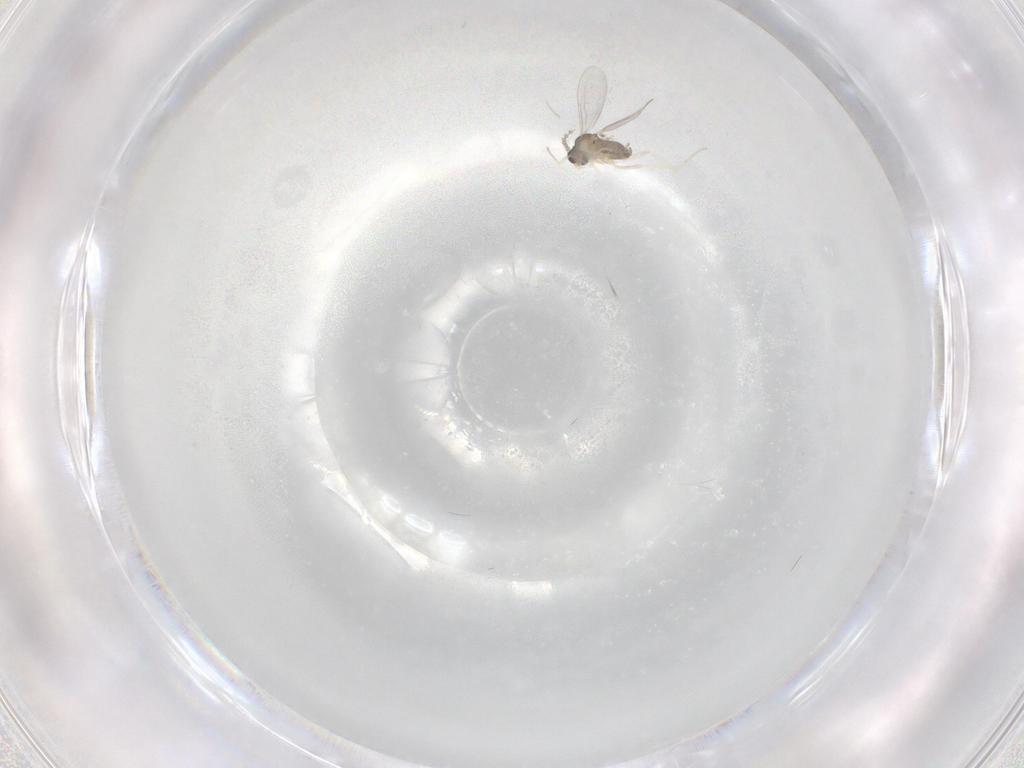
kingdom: Animalia
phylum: Arthropoda
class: Insecta
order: Diptera
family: Cecidomyiidae
